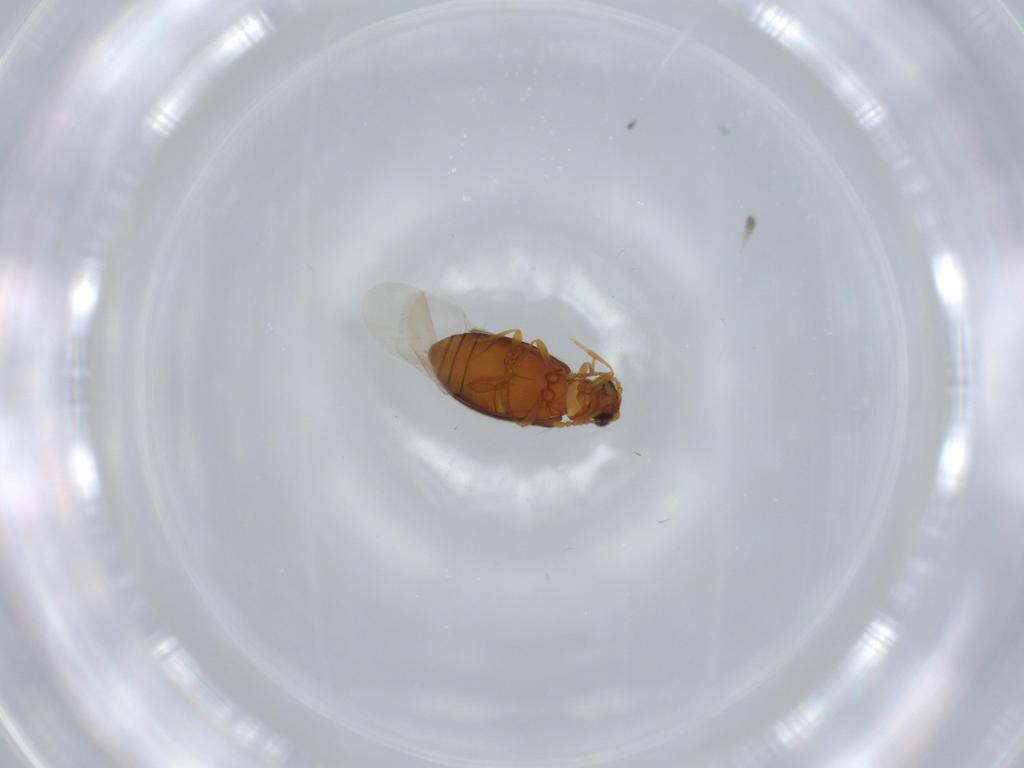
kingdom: Animalia
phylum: Arthropoda
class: Insecta
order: Coleoptera
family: Aderidae
